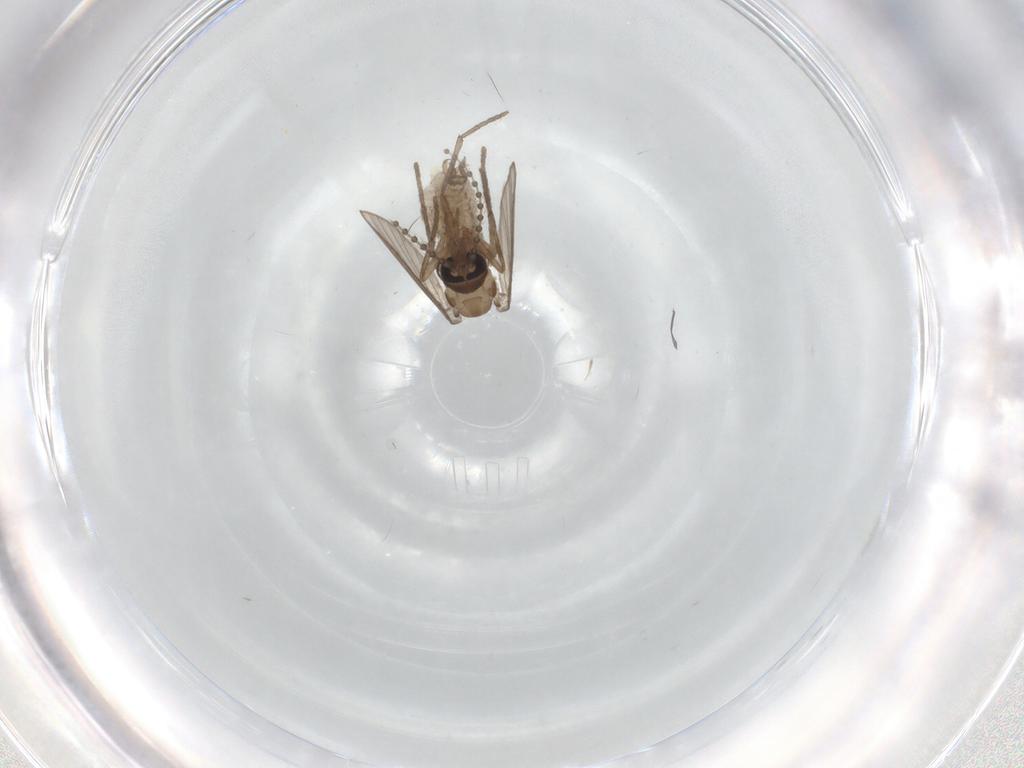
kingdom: Animalia
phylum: Arthropoda
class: Insecta
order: Diptera
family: Psychodidae
